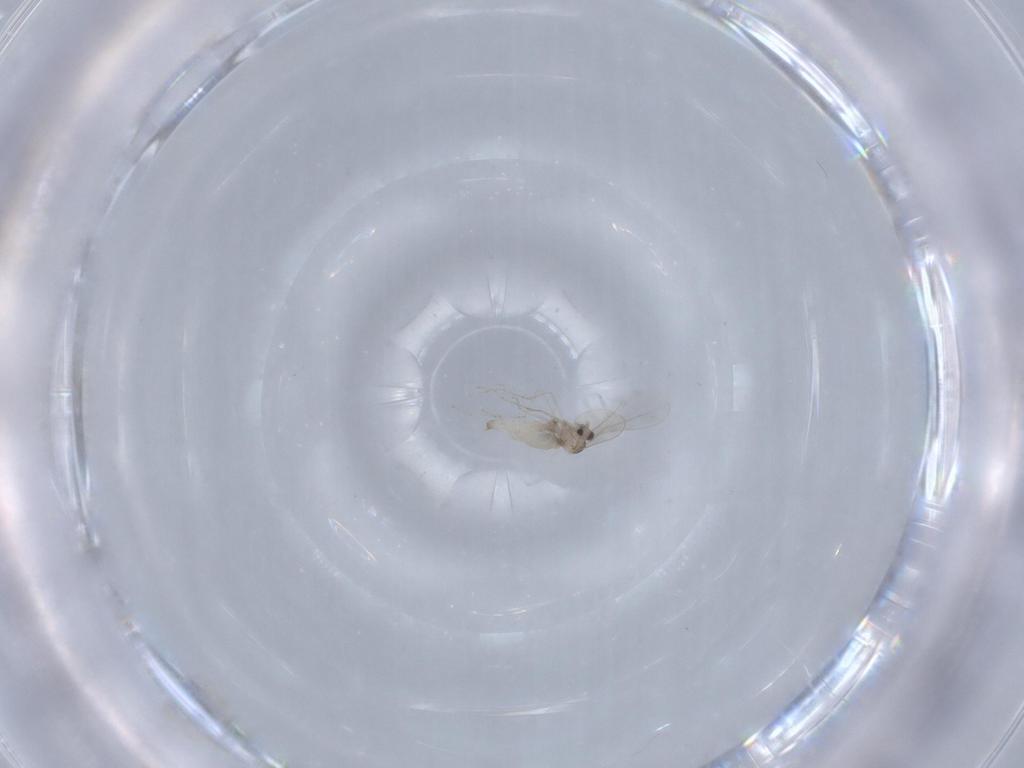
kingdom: Animalia
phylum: Arthropoda
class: Insecta
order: Diptera
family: Cecidomyiidae
